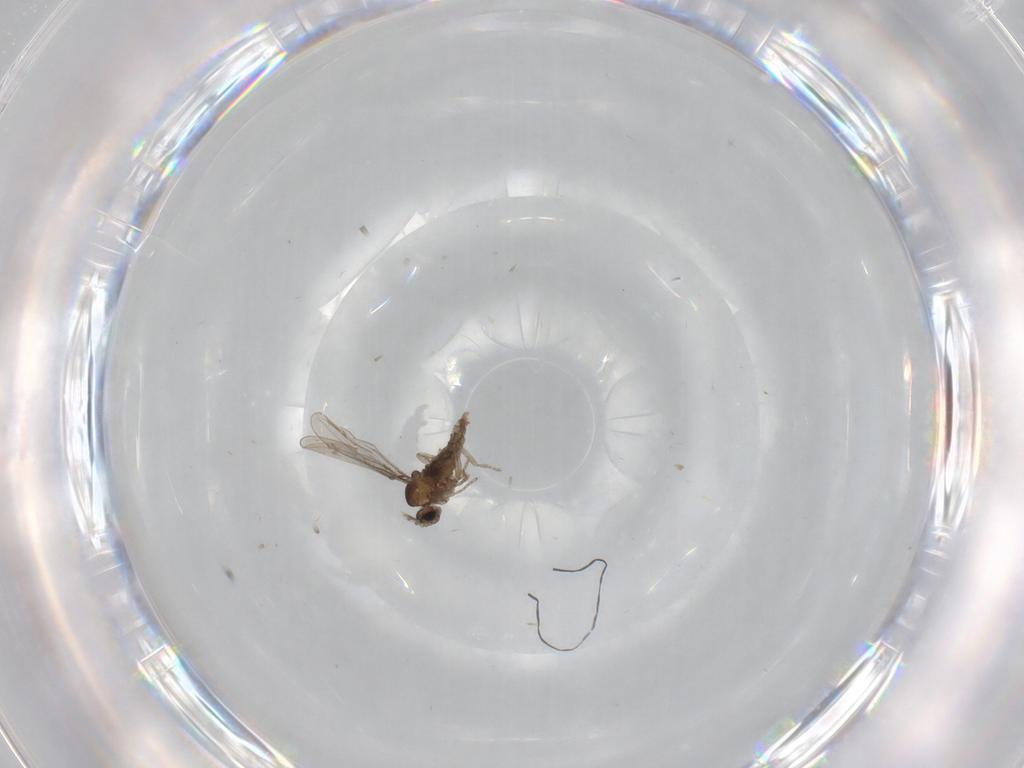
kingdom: Animalia
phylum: Arthropoda
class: Insecta
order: Diptera
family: Cecidomyiidae
